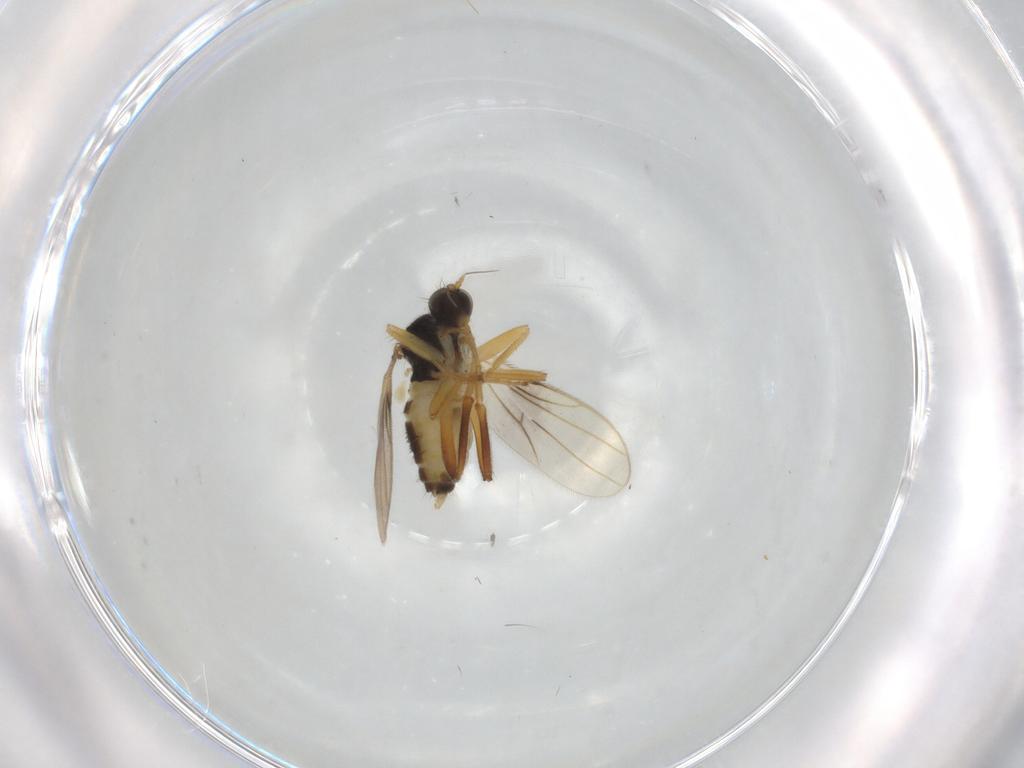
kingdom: Animalia
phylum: Arthropoda
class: Insecta
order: Diptera
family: Hybotidae
